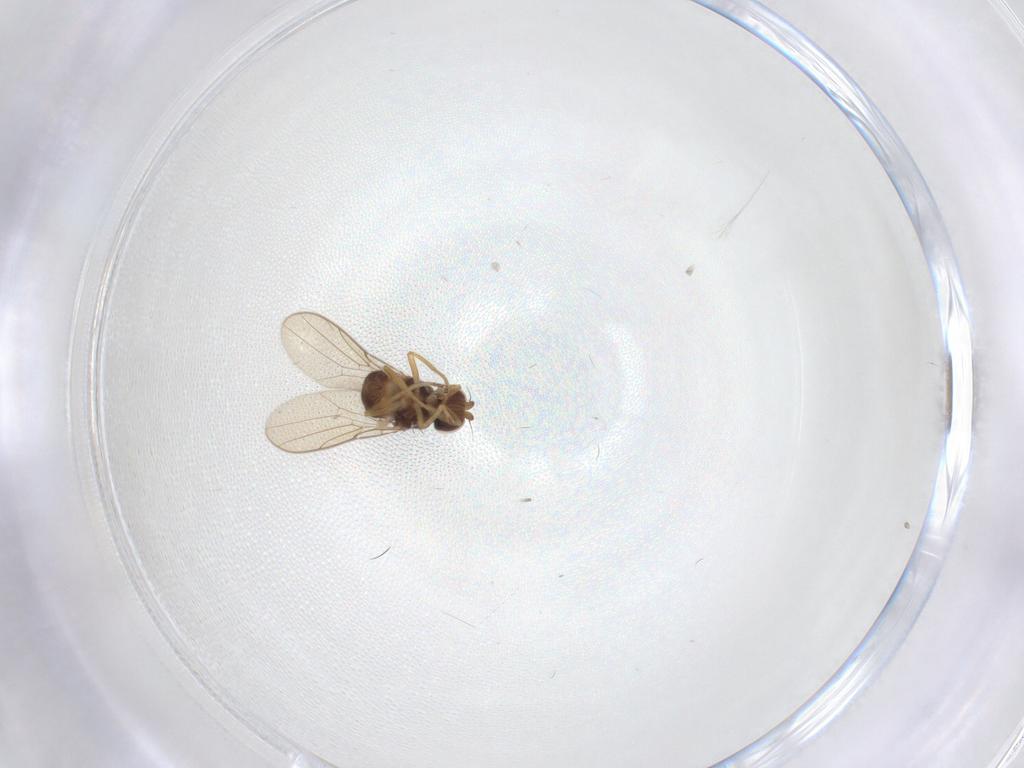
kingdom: Animalia
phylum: Arthropoda
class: Insecta
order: Diptera
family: Chloropidae
